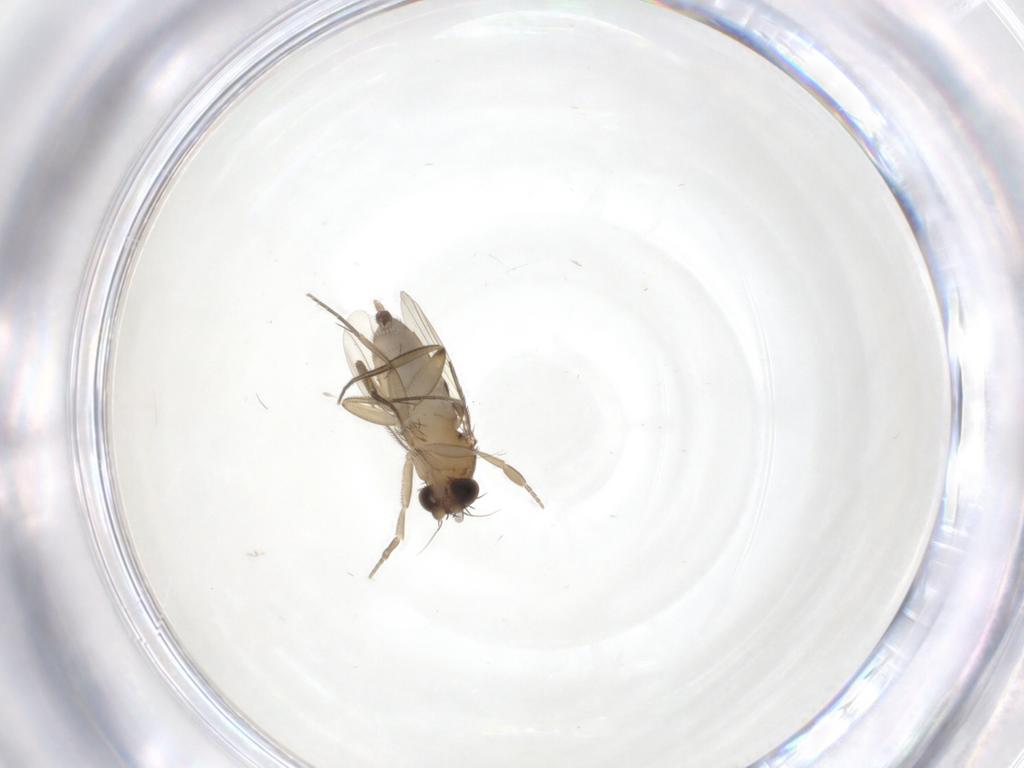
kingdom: Animalia
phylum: Arthropoda
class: Insecta
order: Diptera
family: Phoridae
